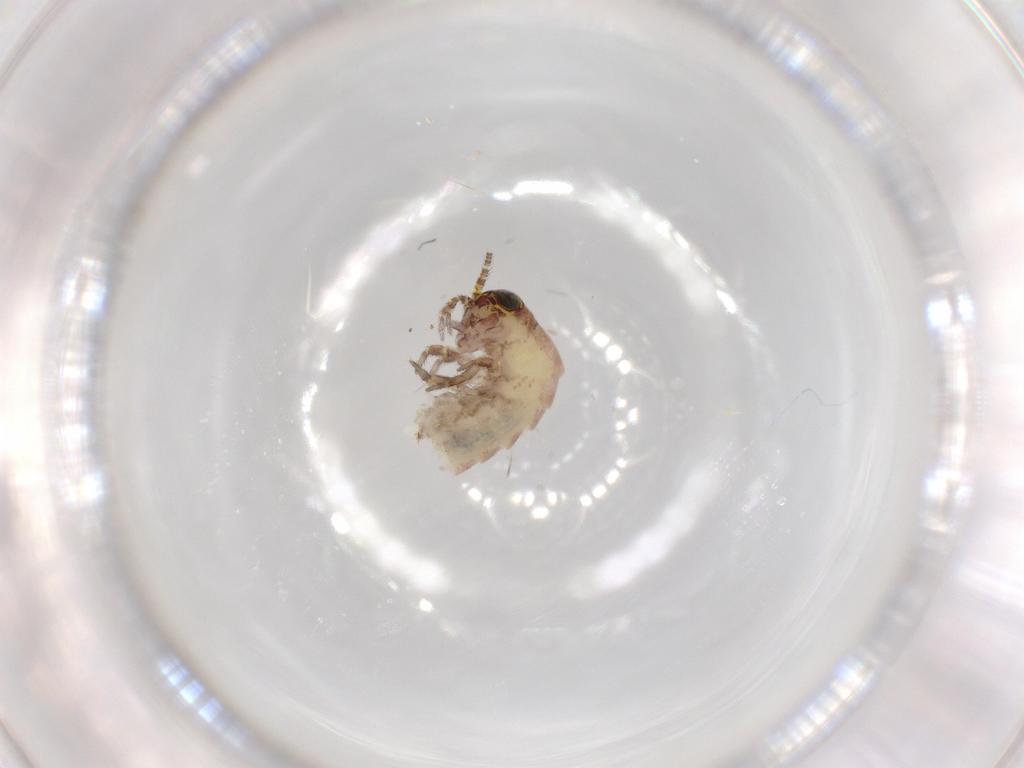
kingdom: Animalia
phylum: Arthropoda
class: Insecta
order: Archaeognatha
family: Machilidae
